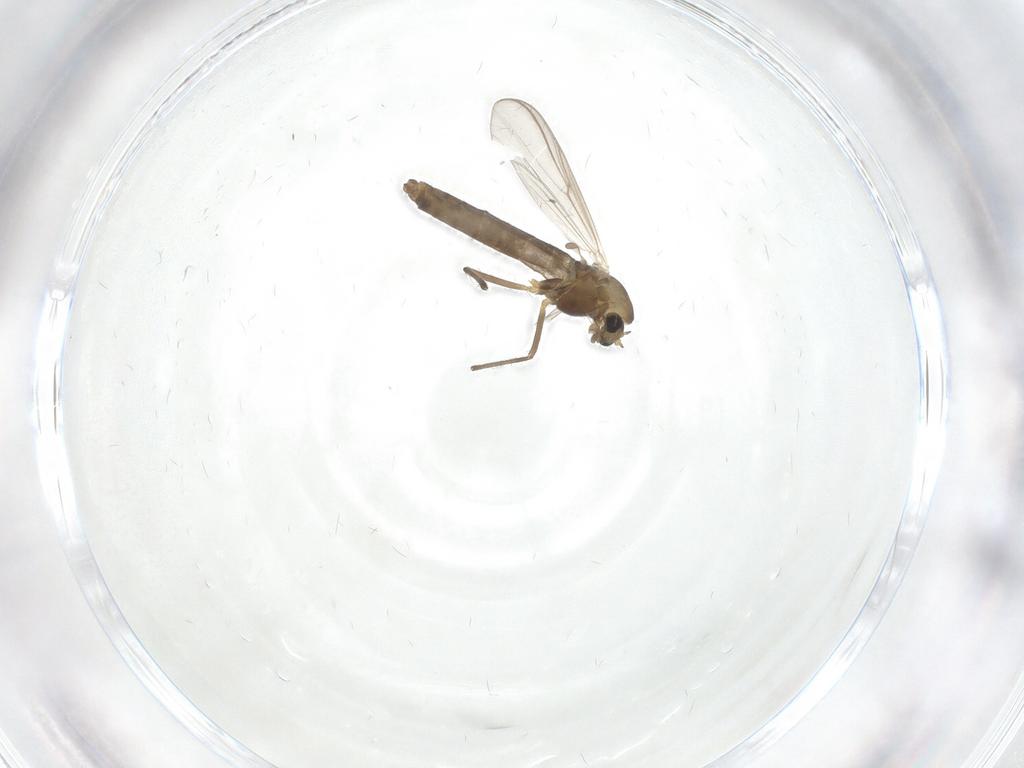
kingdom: Animalia
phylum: Arthropoda
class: Insecta
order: Diptera
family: Chironomidae
